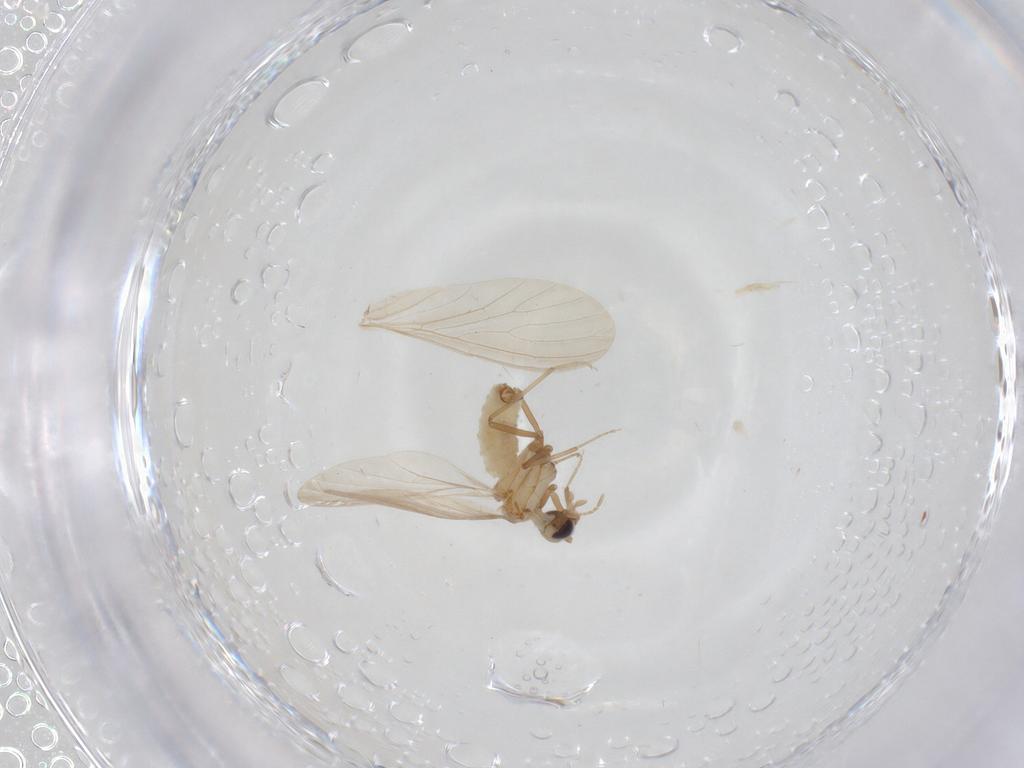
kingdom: Animalia
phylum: Arthropoda
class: Insecta
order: Neuroptera
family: Coniopterygidae
